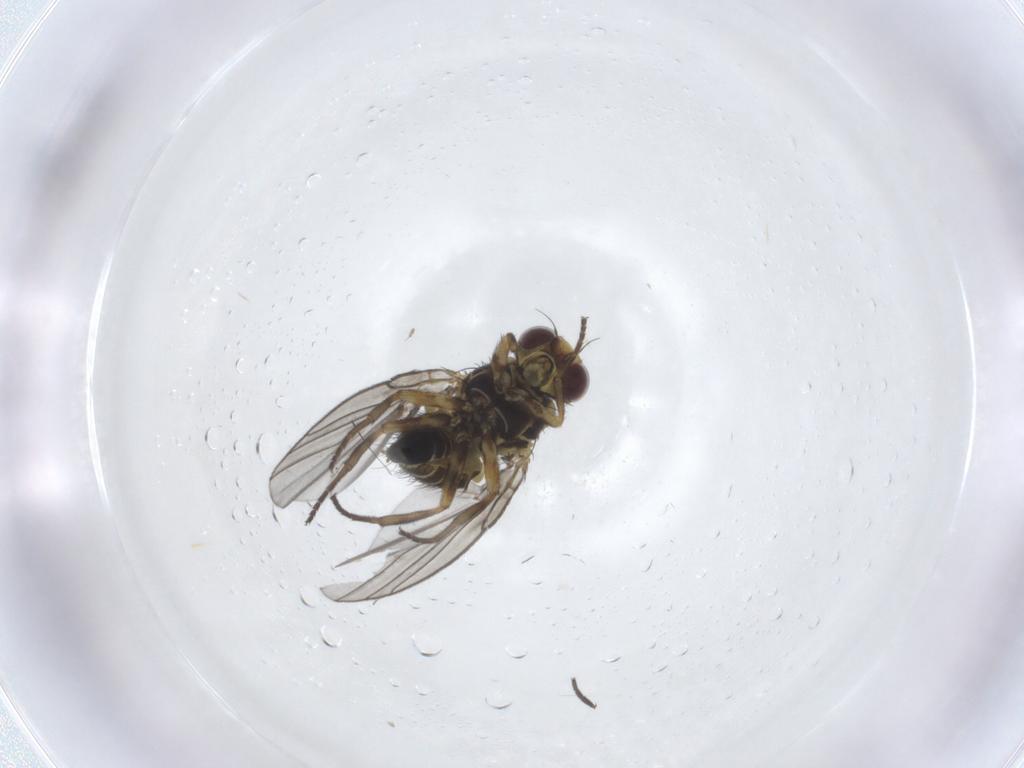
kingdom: Animalia
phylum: Arthropoda
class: Insecta
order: Diptera
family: Agromyzidae
